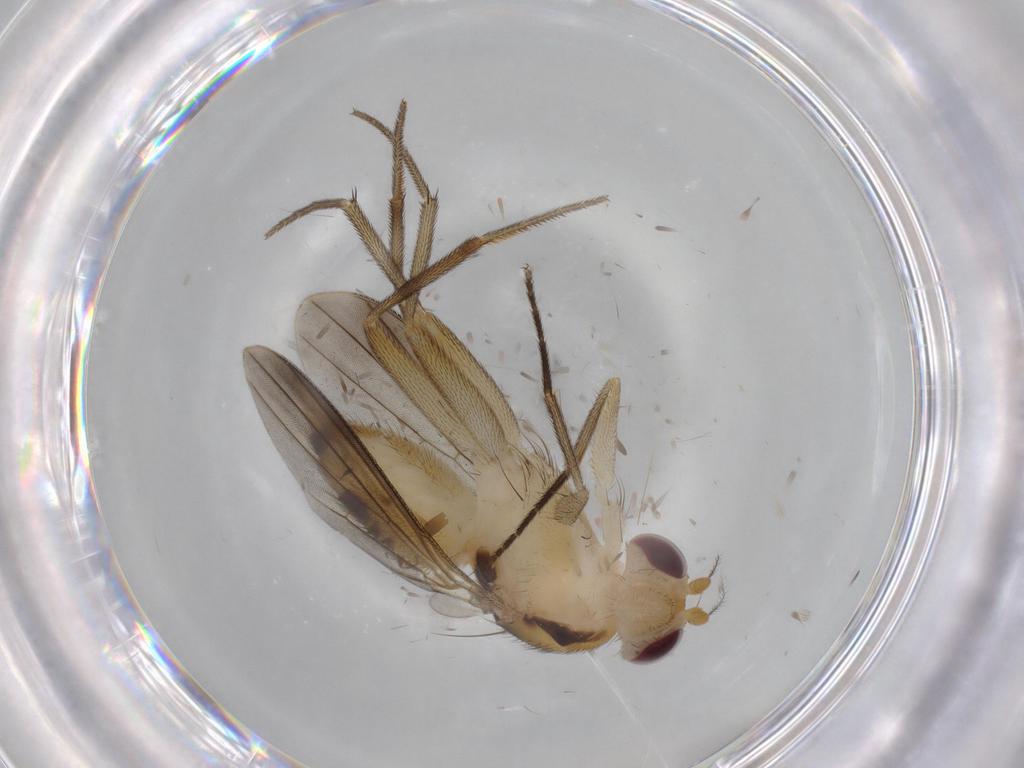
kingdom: Animalia
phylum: Arthropoda
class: Insecta
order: Diptera
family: Clusiidae
